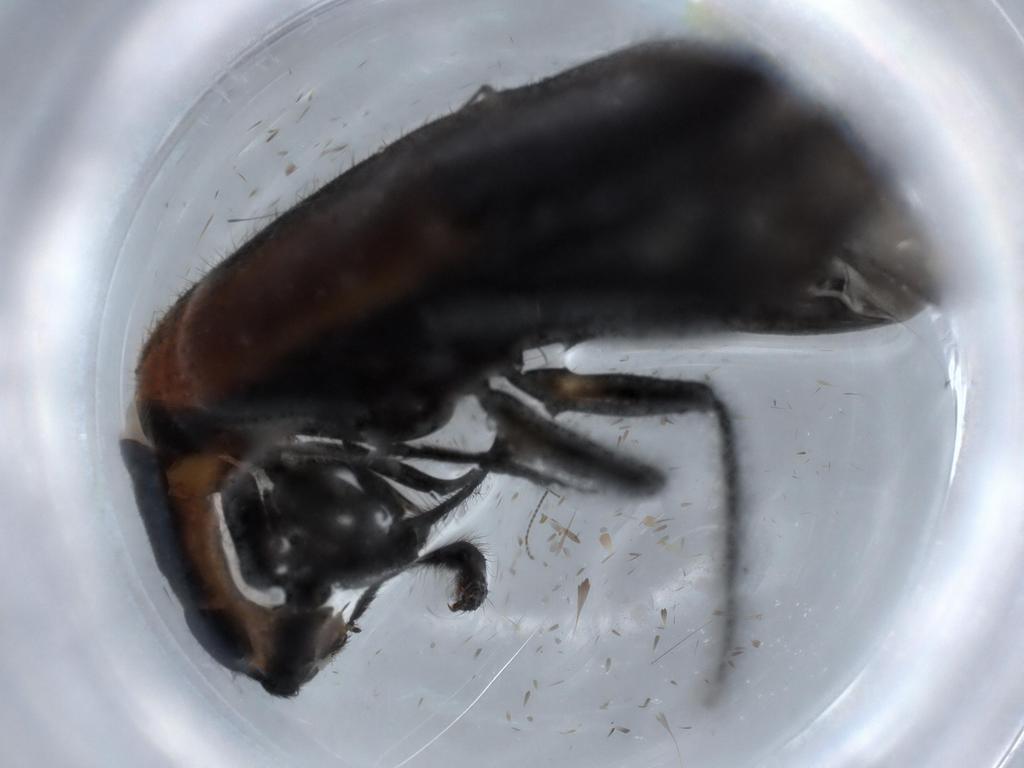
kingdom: Animalia
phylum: Arthropoda
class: Insecta
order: Coleoptera
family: Cleridae
